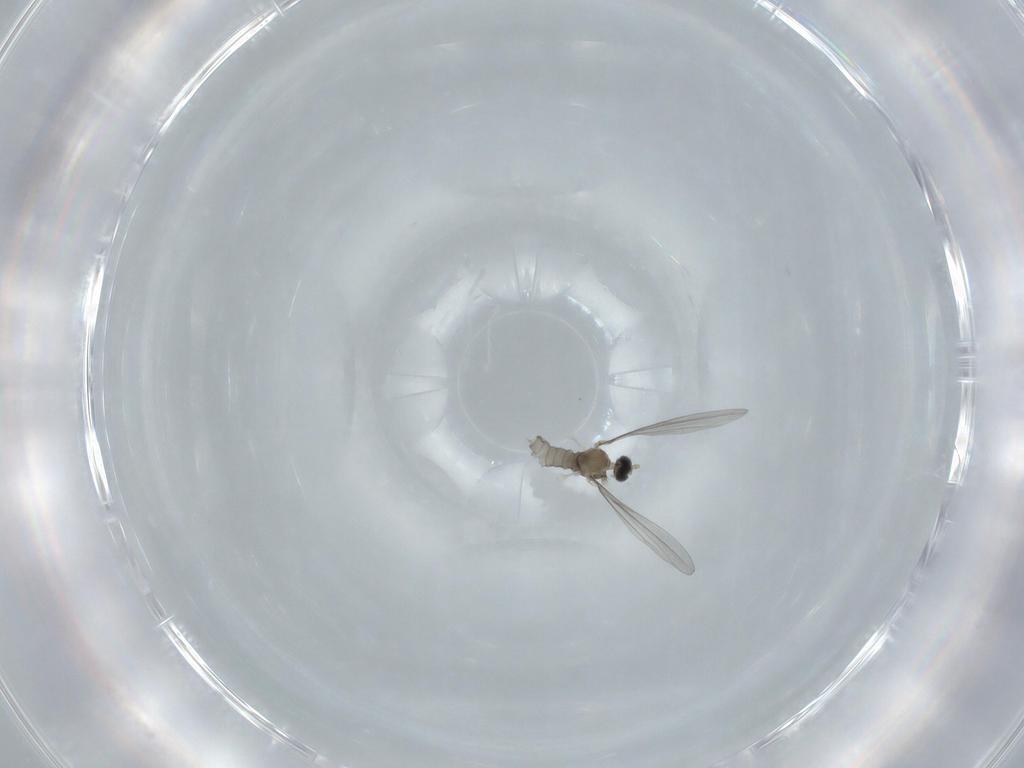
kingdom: Animalia
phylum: Arthropoda
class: Insecta
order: Diptera
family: Cecidomyiidae
